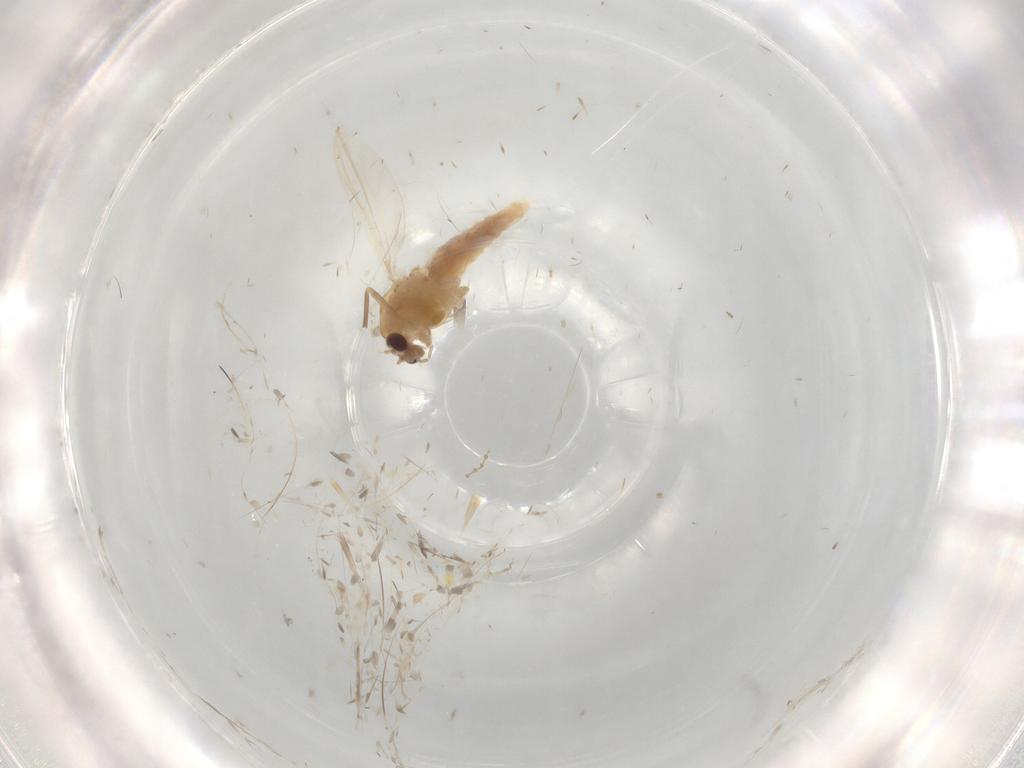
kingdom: Animalia
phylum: Arthropoda
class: Insecta
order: Diptera
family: Chironomidae
